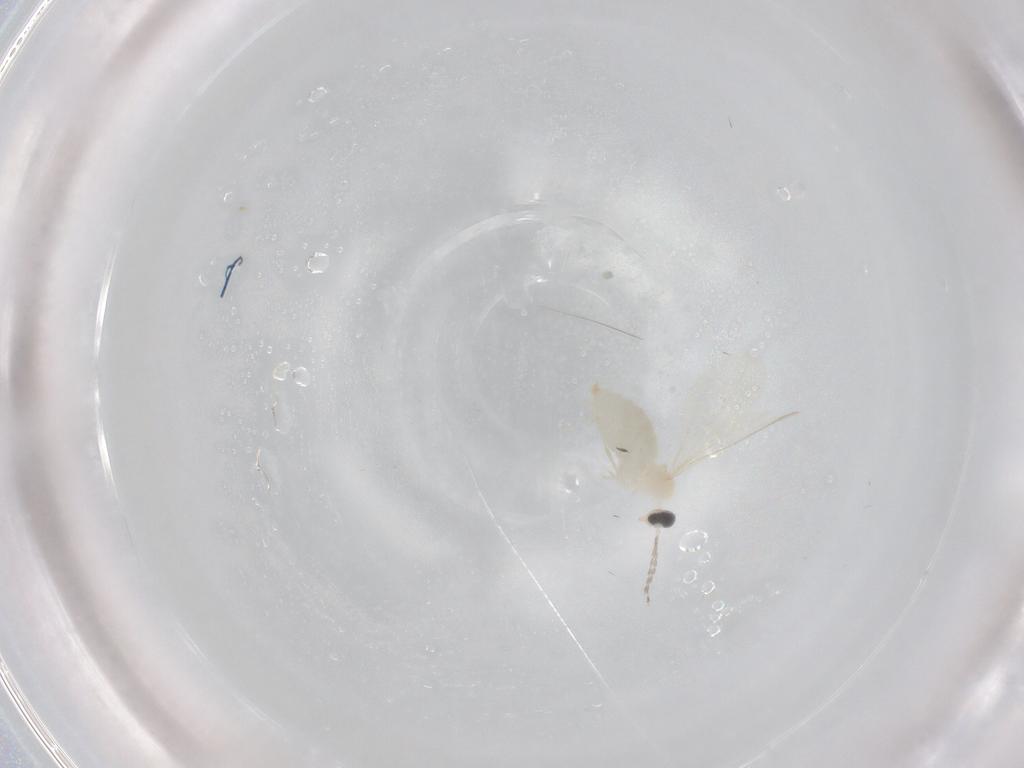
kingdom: Animalia
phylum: Arthropoda
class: Insecta
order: Diptera
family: Cecidomyiidae
